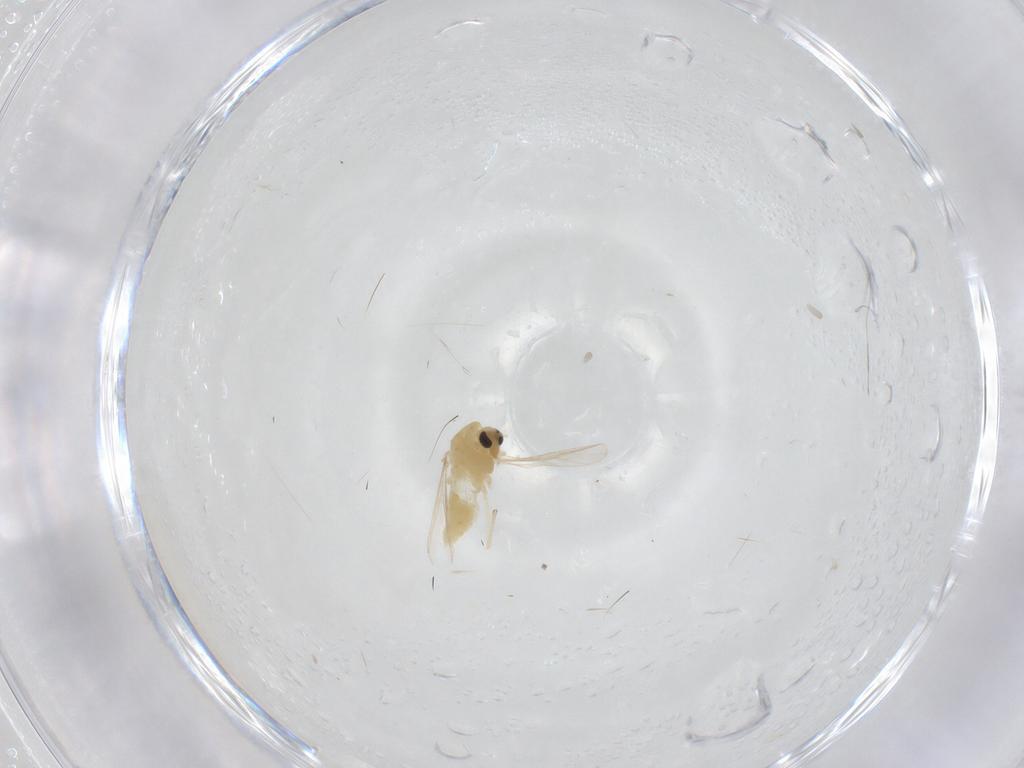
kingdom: Animalia
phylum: Arthropoda
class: Insecta
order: Diptera
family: Chironomidae
